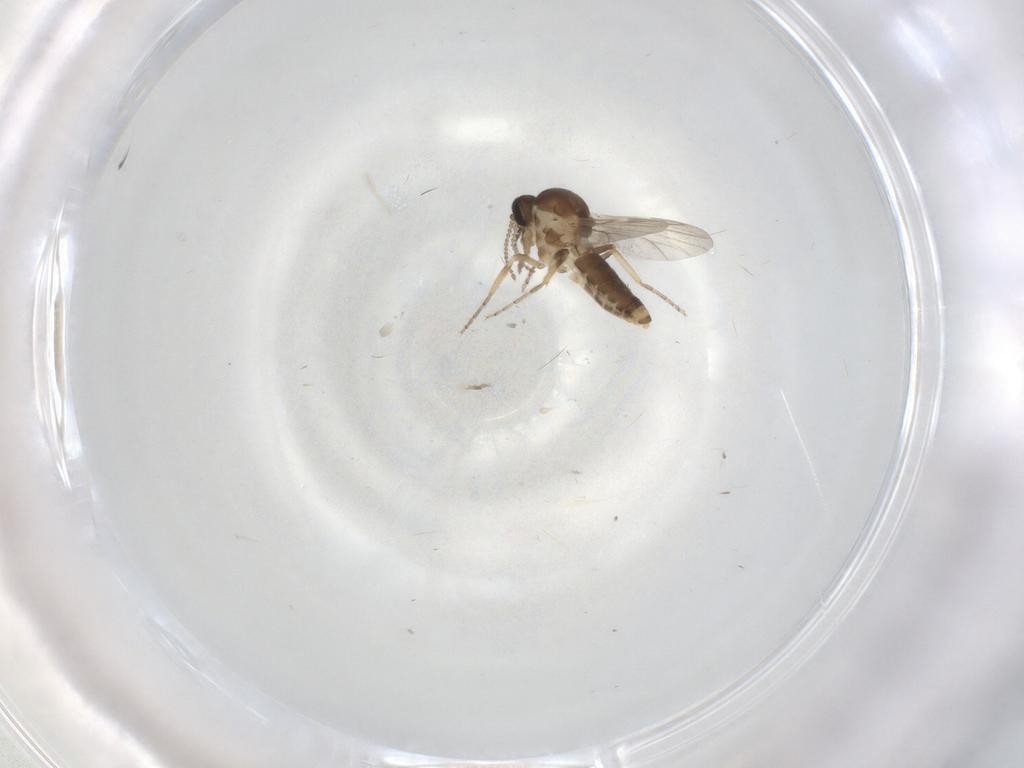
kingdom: Animalia
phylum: Arthropoda
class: Insecta
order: Diptera
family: Ceratopogonidae
